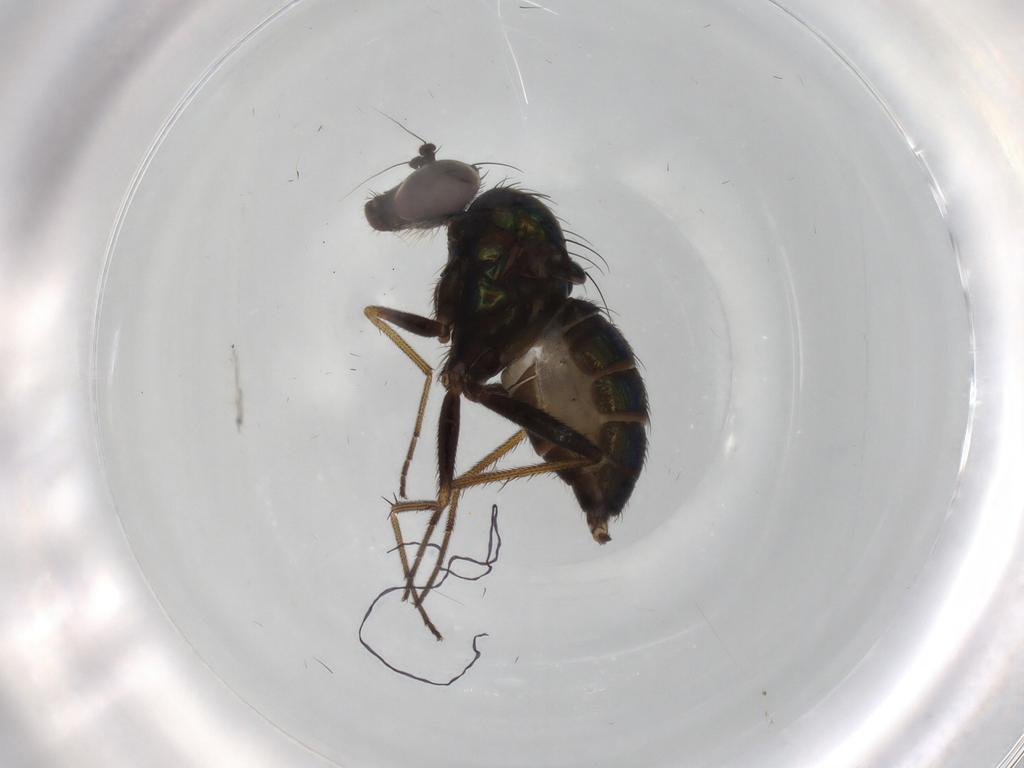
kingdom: Animalia
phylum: Arthropoda
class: Insecta
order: Diptera
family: Dolichopodidae
